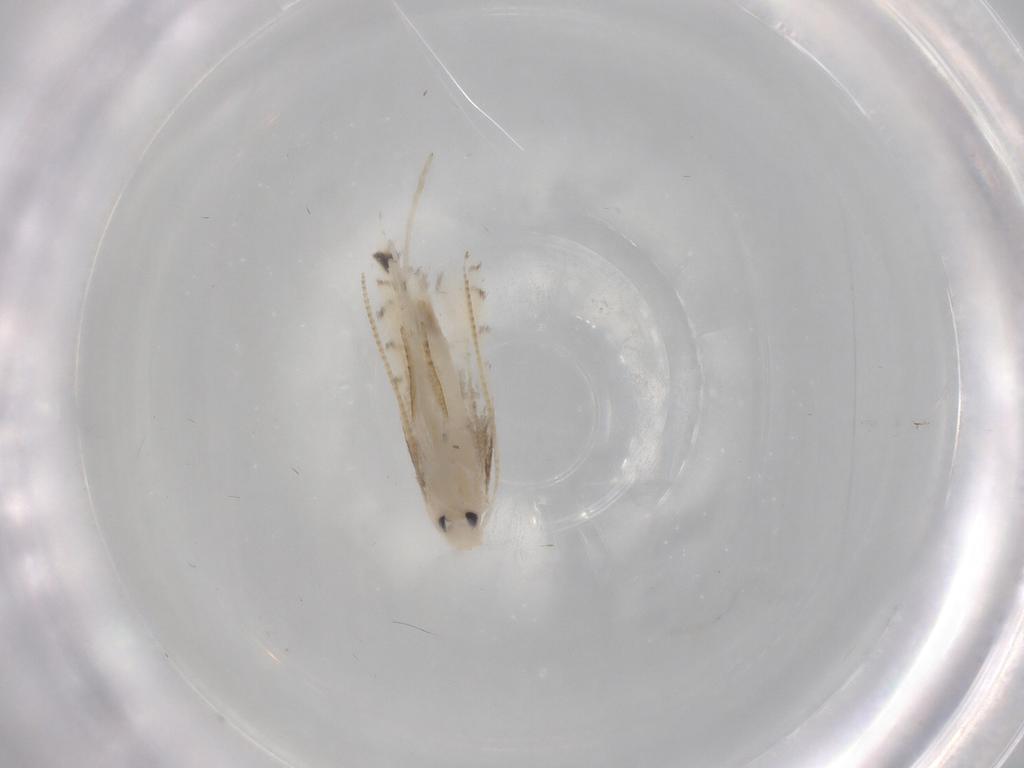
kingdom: Animalia
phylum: Arthropoda
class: Insecta
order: Lepidoptera
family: Gracillariidae
